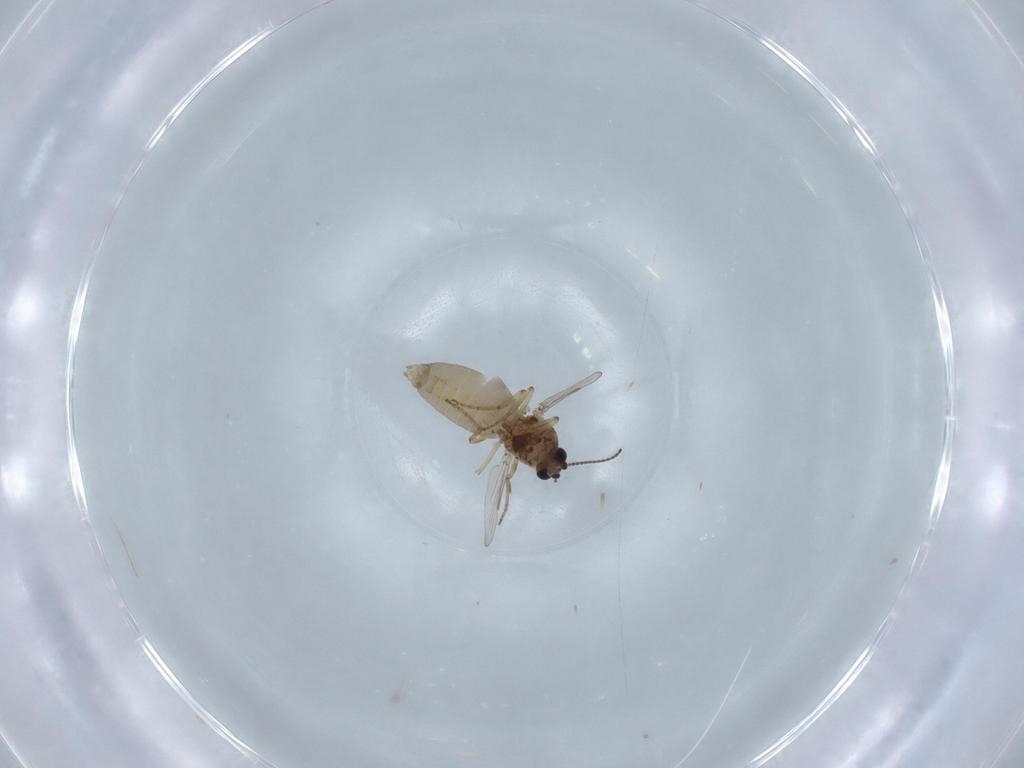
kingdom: Animalia
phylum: Arthropoda
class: Insecta
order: Diptera
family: Ceratopogonidae
